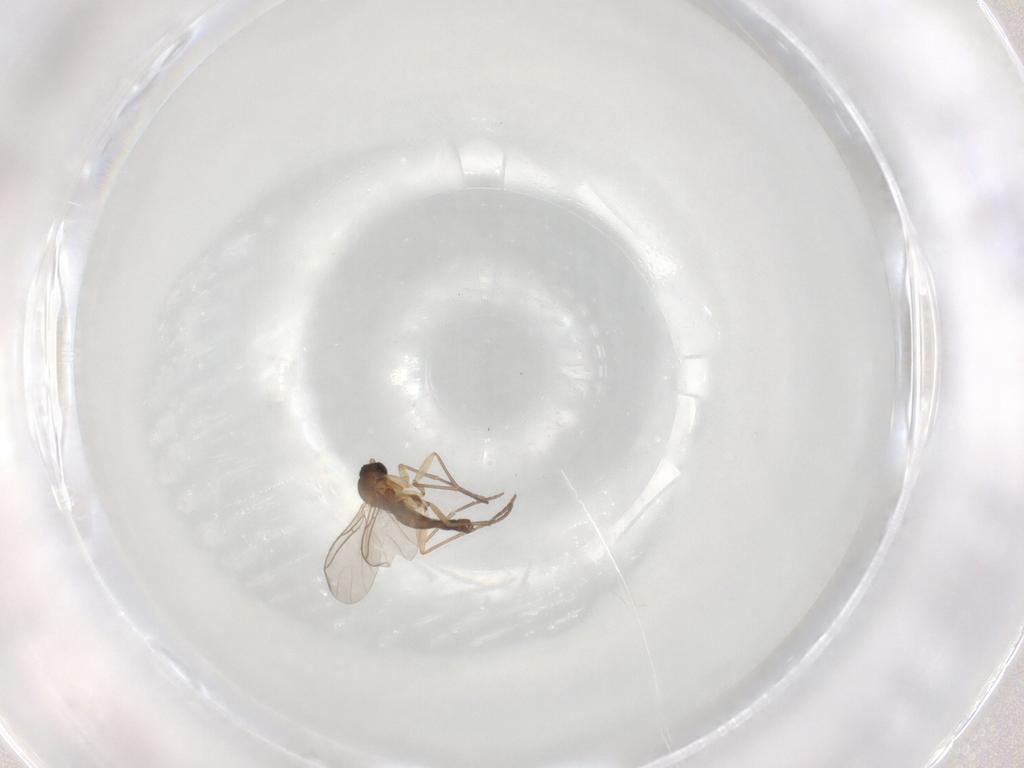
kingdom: Animalia
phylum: Arthropoda
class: Insecta
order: Diptera
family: Sciaridae
